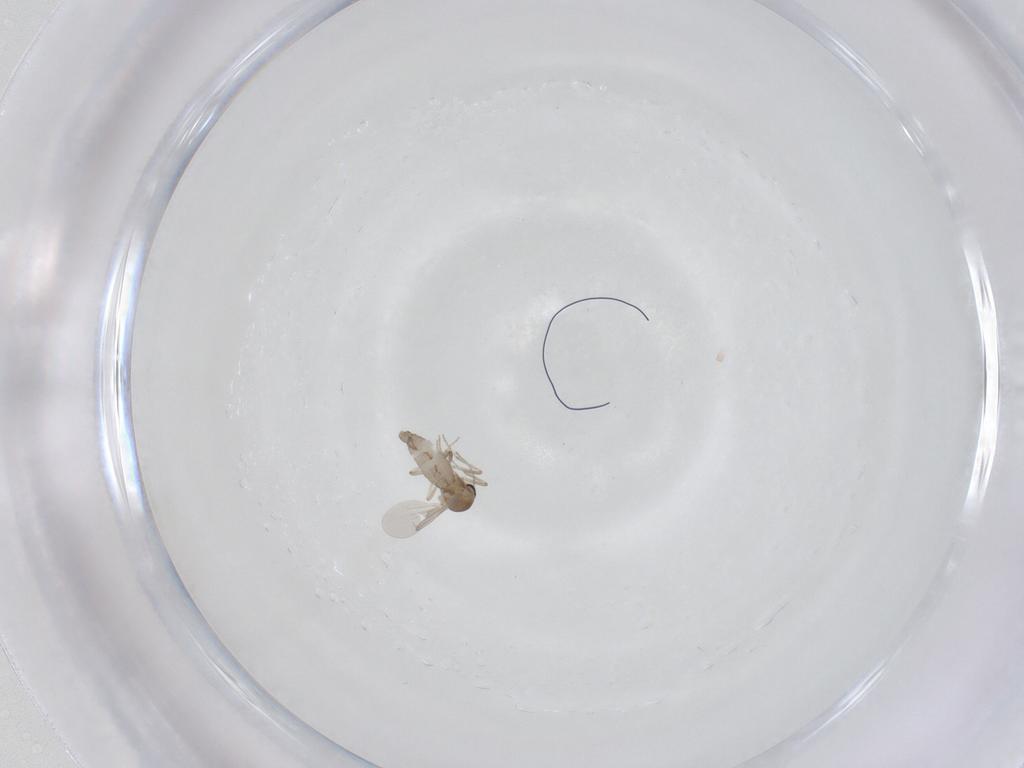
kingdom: Animalia
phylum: Arthropoda
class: Insecta
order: Diptera
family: Ceratopogonidae
